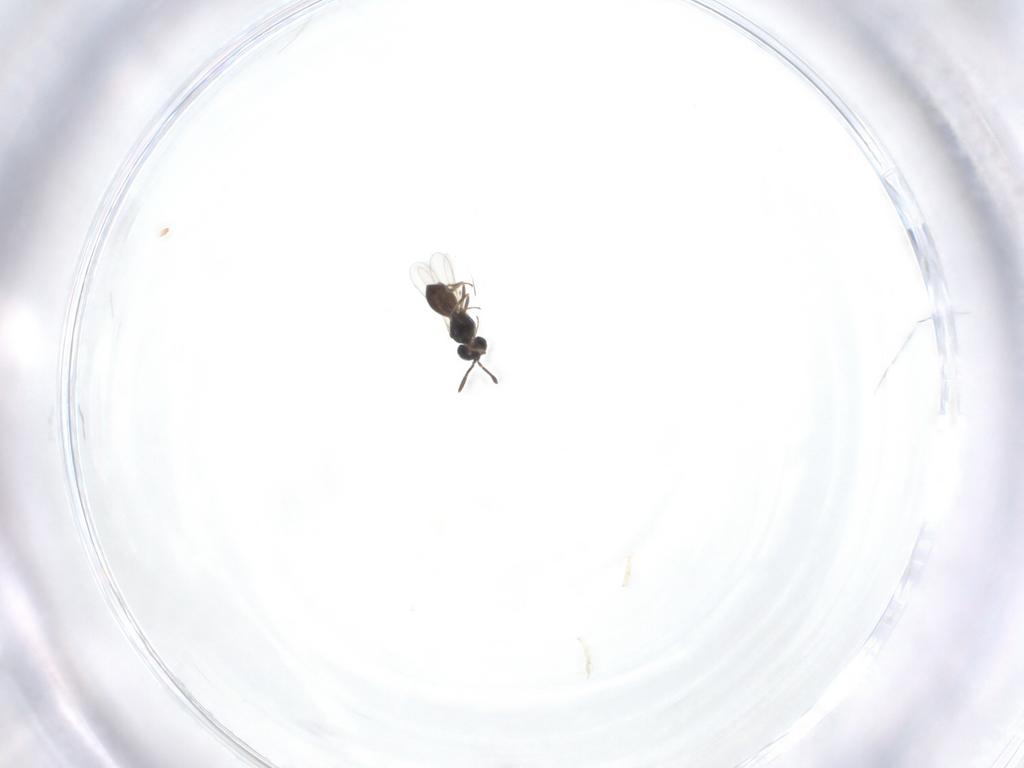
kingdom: Animalia
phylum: Arthropoda
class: Insecta
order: Hymenoptera
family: Scelionidae
